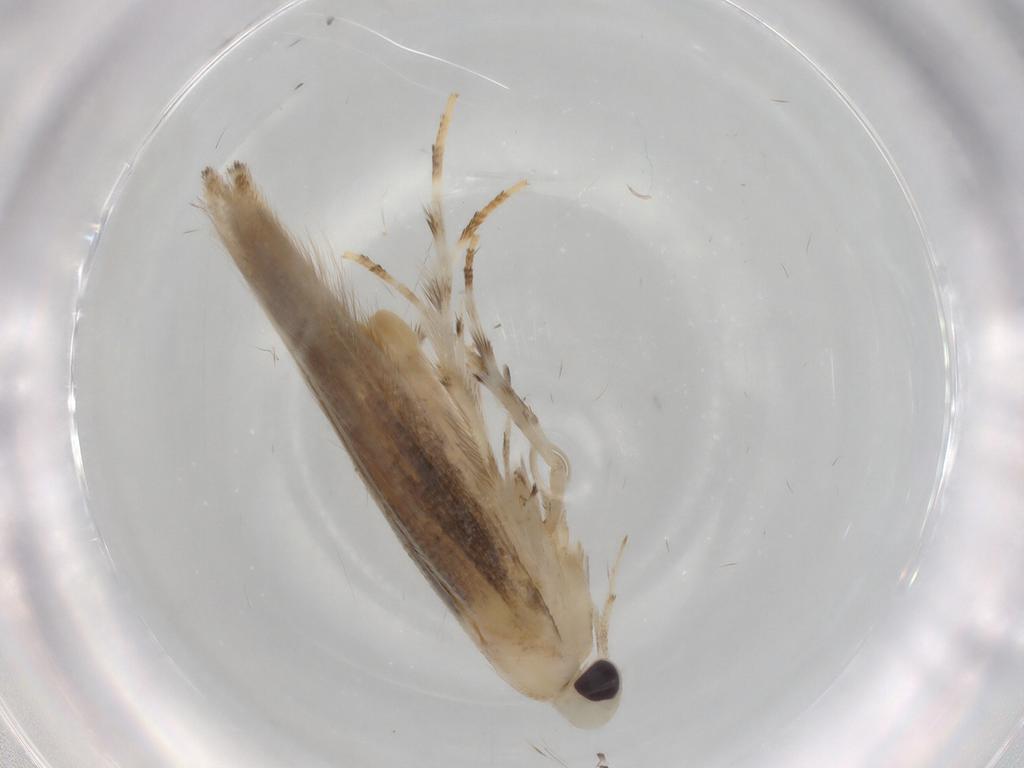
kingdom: Animalia
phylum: Arthropoda
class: Insecta
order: Lepidoptera
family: Gracillariidae
